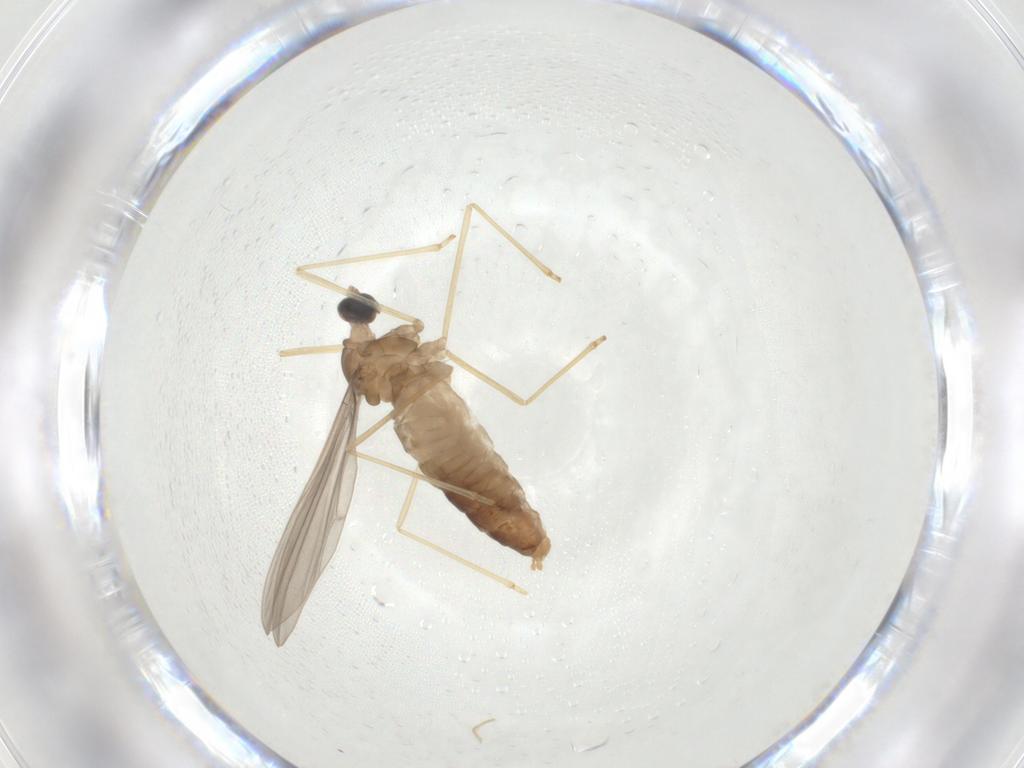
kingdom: Animalia
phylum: Arthropoda
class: Insecta
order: Diptera
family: Cecidomyiidae
